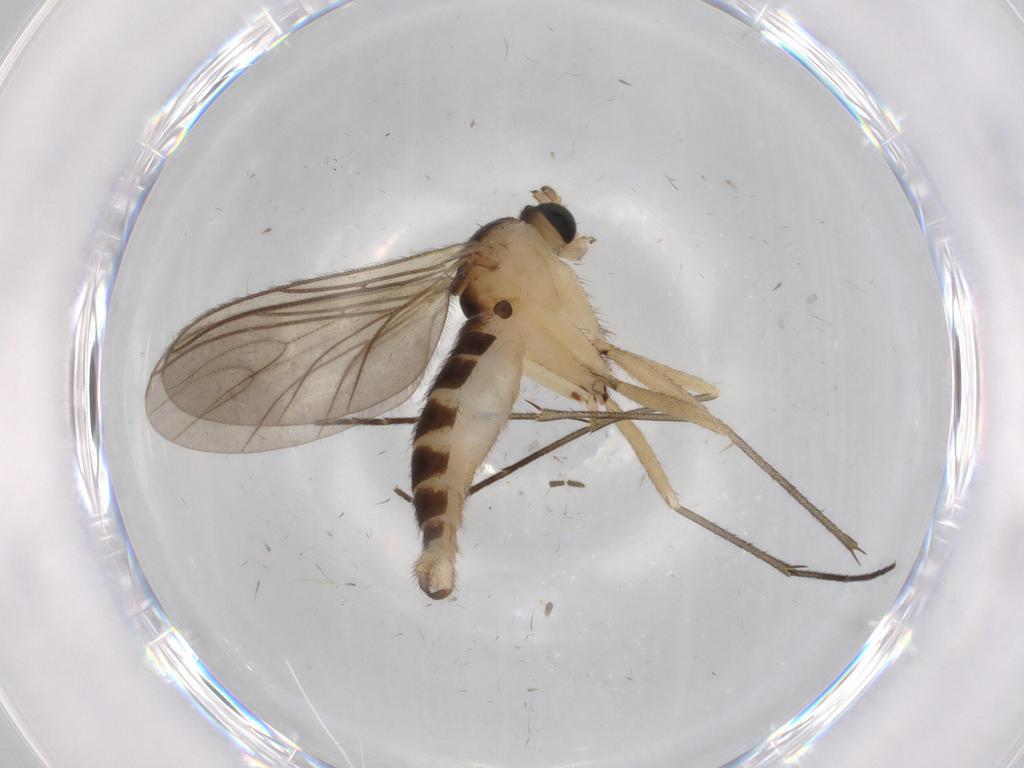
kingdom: Animalia
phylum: Arthropoda
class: Insecta
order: Diptera
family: Sciaridae
